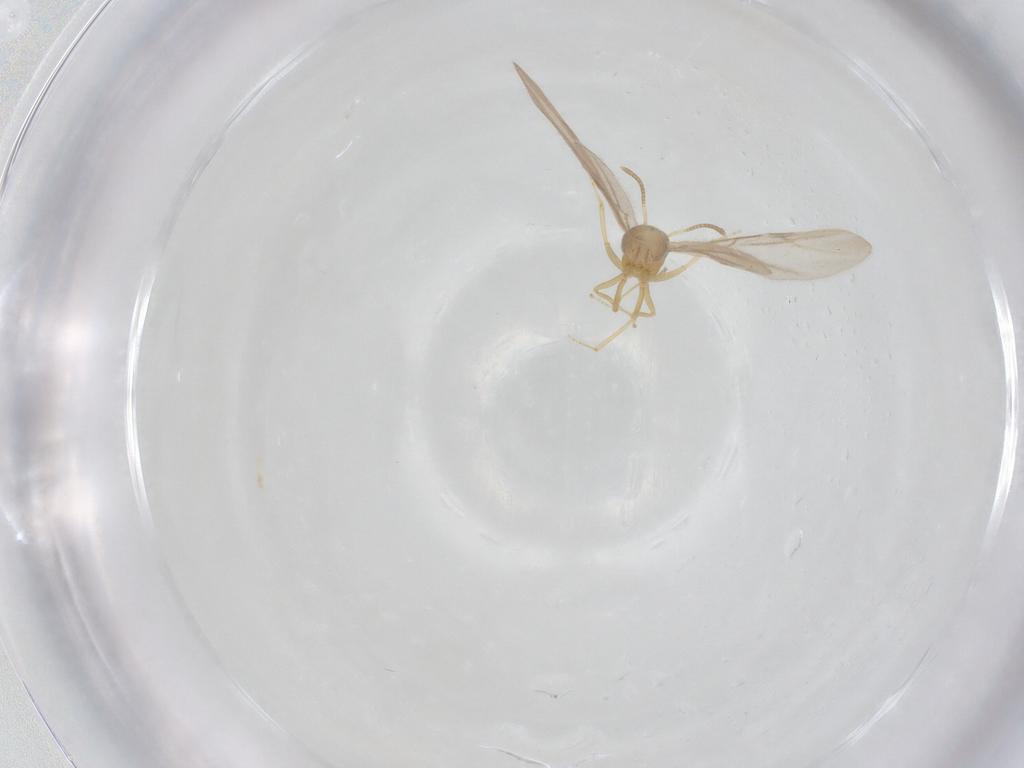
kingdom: Animalia
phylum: Arthropoda
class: Insecta
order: Hymenoptera
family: Formicidae
